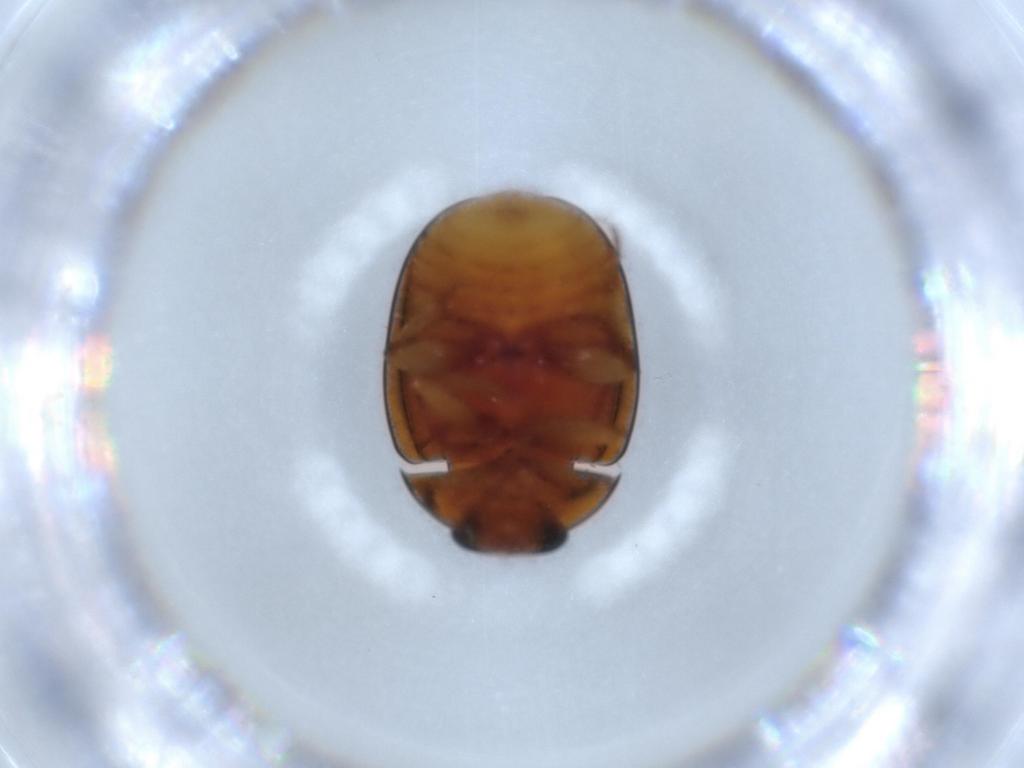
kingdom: Animalia
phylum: Arthropoda
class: Insecta
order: Coleoptera
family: Nitidulidae
